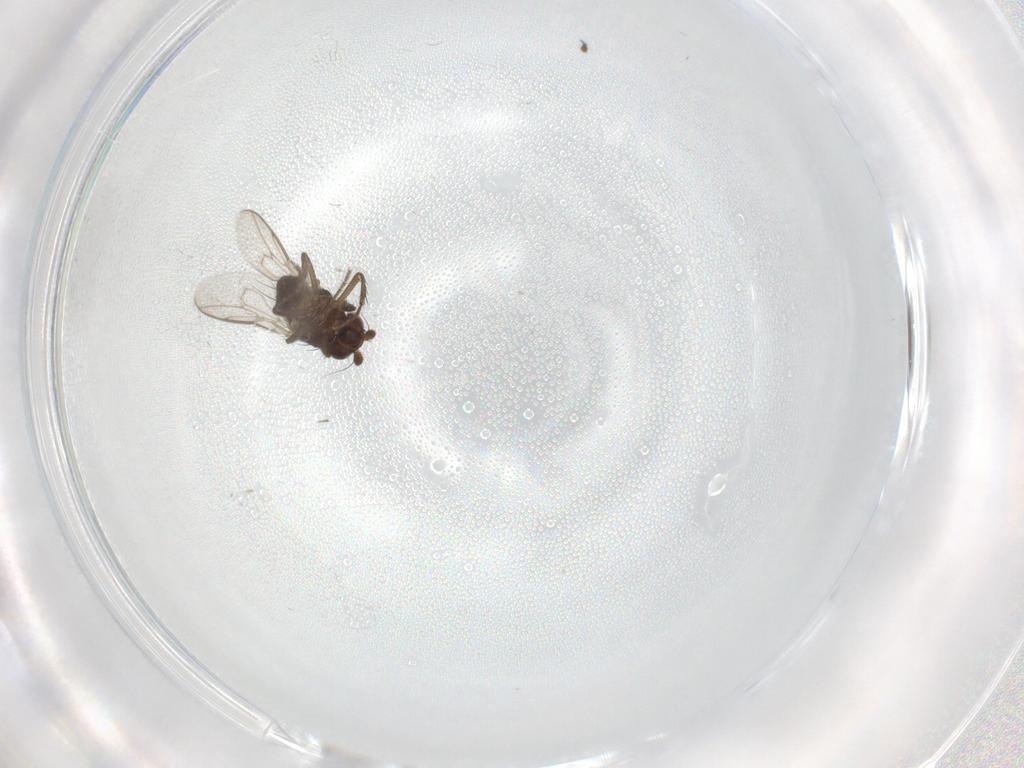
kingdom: Animalia
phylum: Arthropoda
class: Insecta
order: Diptera
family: Sphaeroceridae
